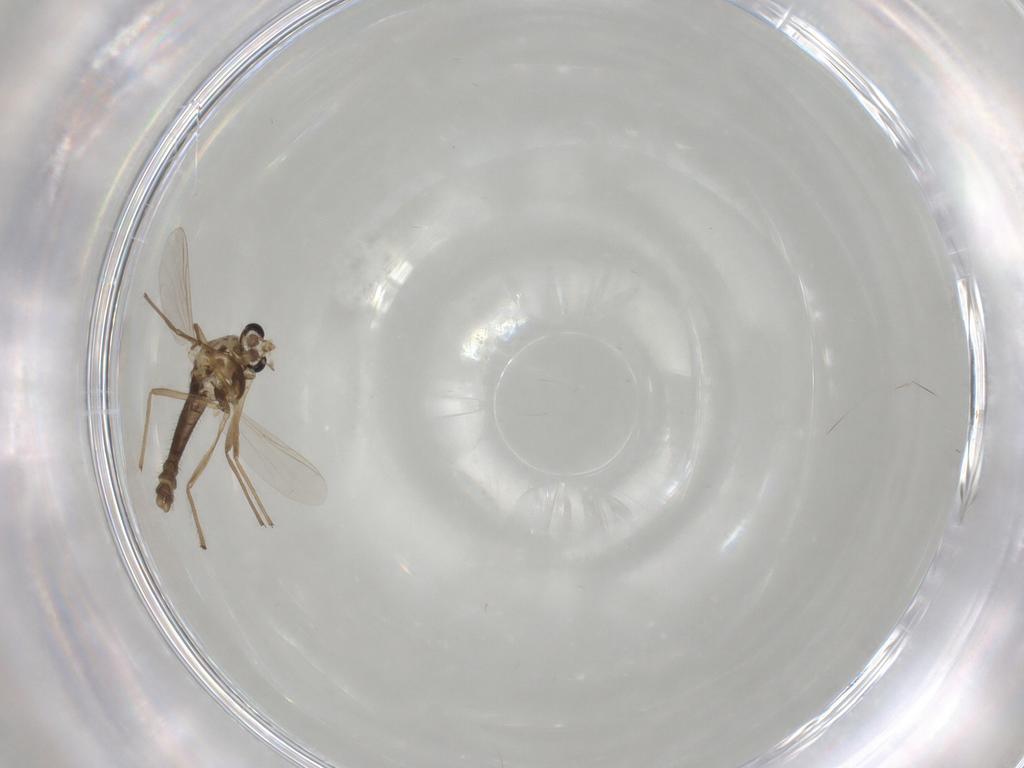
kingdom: Animalia
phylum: Arthropoda
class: Insecta
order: Diptera
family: Chironomidae
